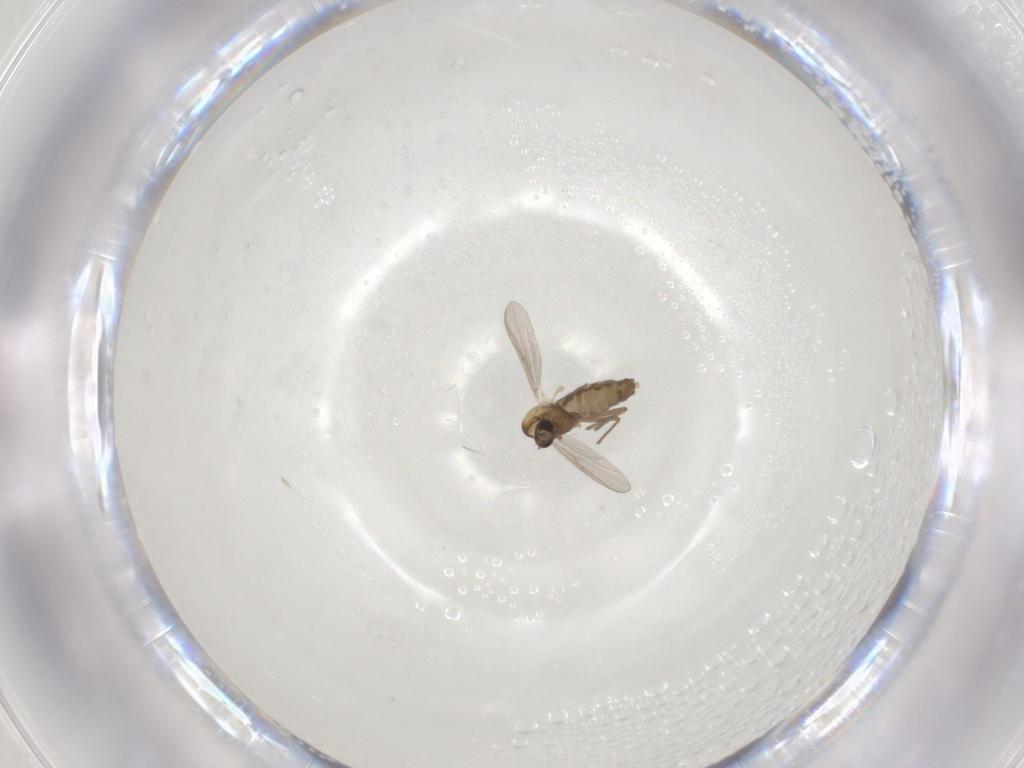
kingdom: Animalia
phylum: Arthropoda
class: Insecta
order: Diptera
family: Chironomidae
